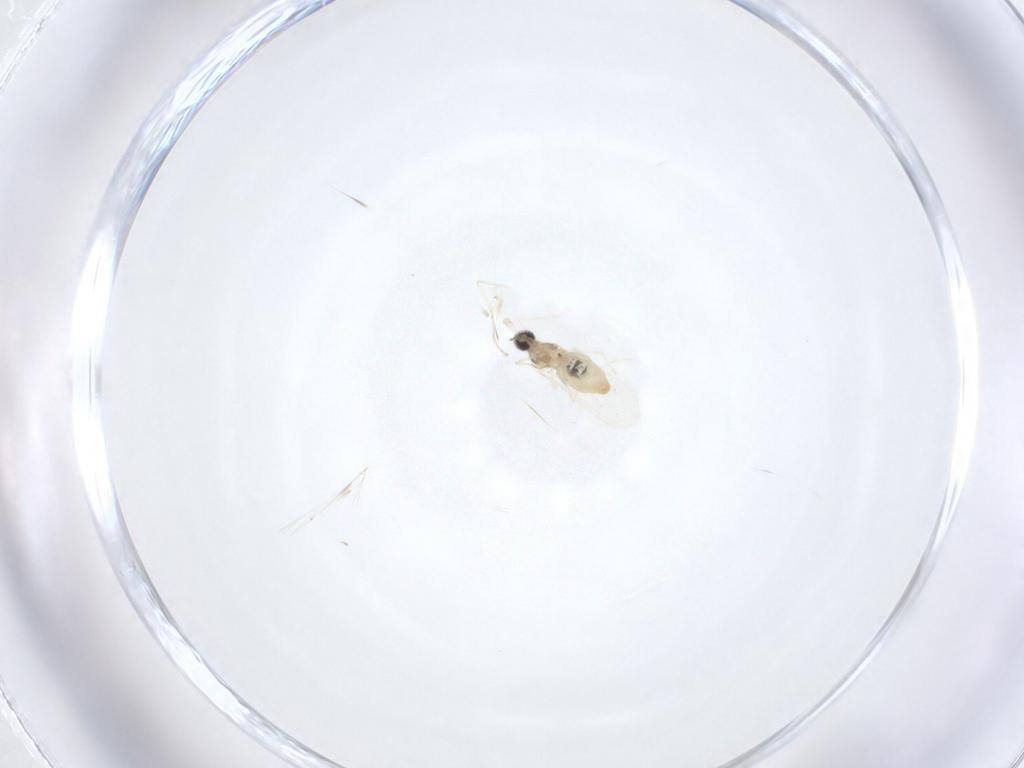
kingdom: Animalia
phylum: Arthropoda
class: Insecta
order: Diptera
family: Cecidomyiidae
